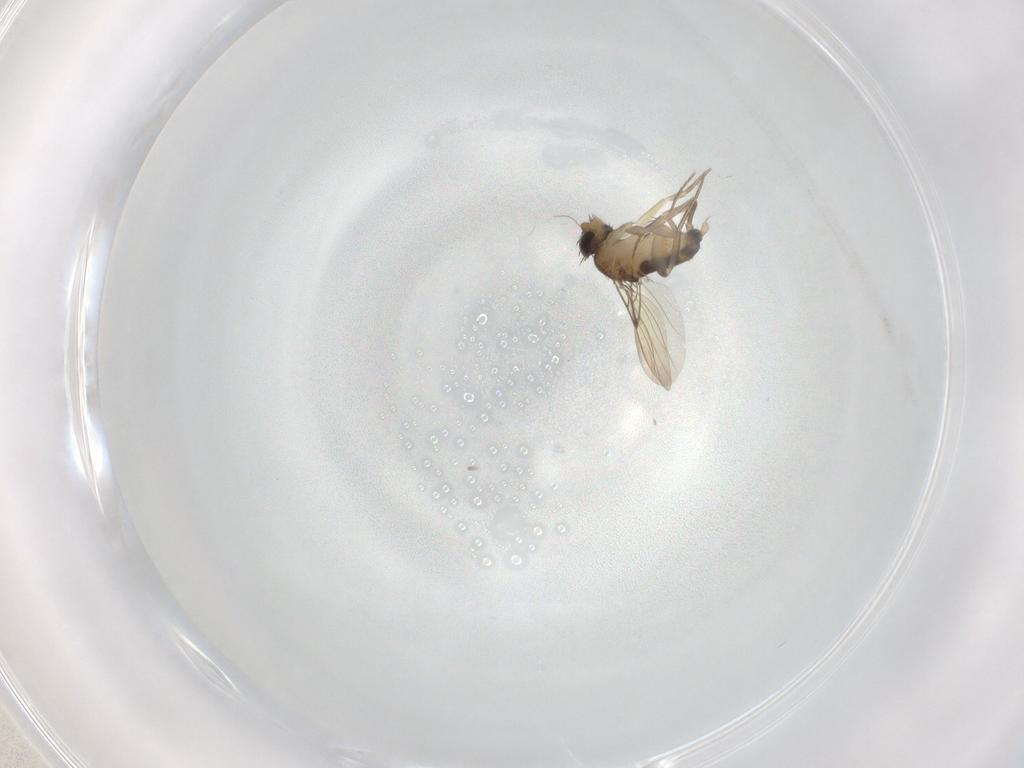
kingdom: Animalia
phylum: Arthropoda
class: Insecta
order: Diptera
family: Phoridae
